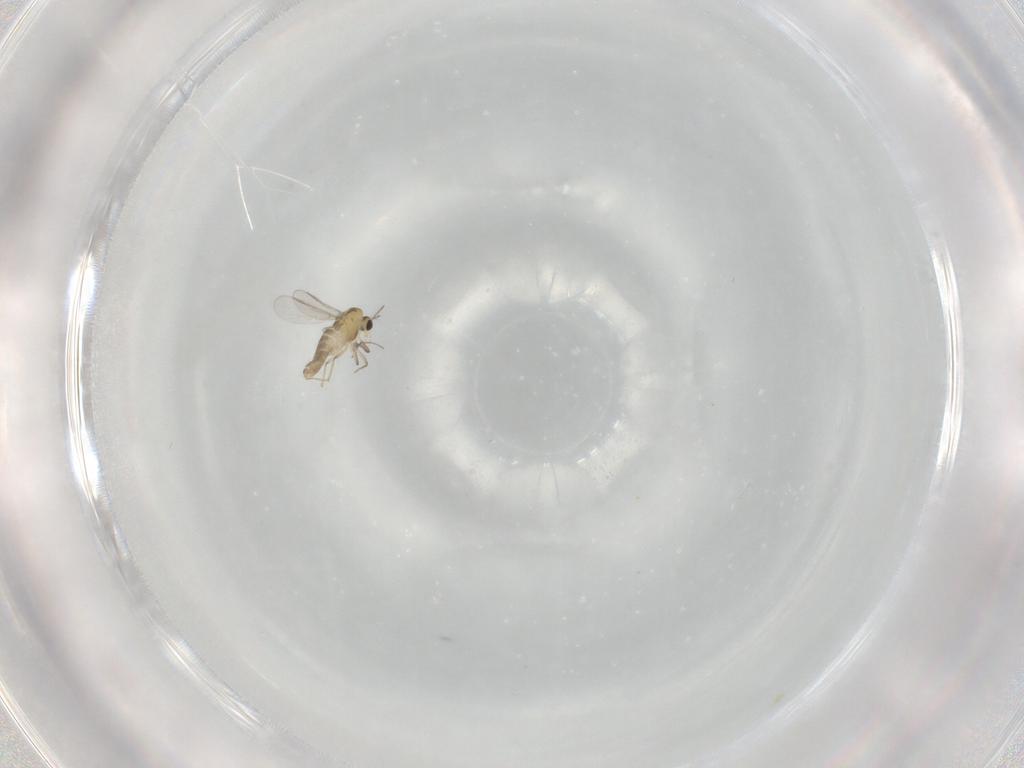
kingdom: Animalia
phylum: Arthropoda
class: Insecta
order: Diptera
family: Chironomidae
